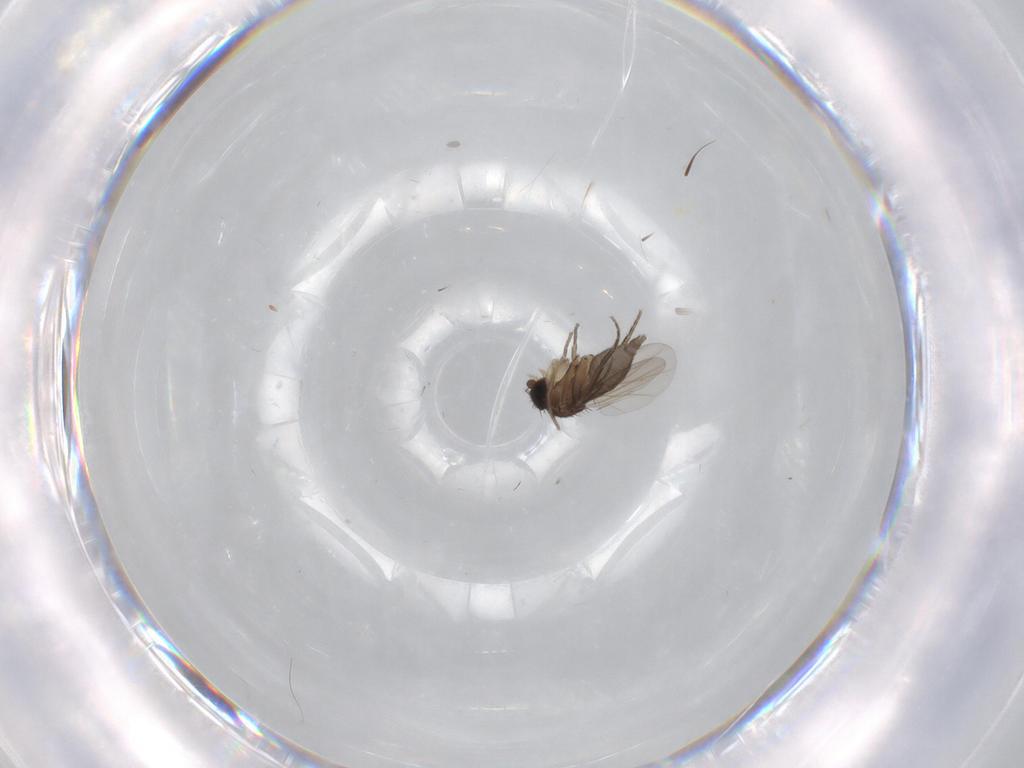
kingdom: Animalia
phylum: Arthropoda
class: Insecta
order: Diptera
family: Phoridae
